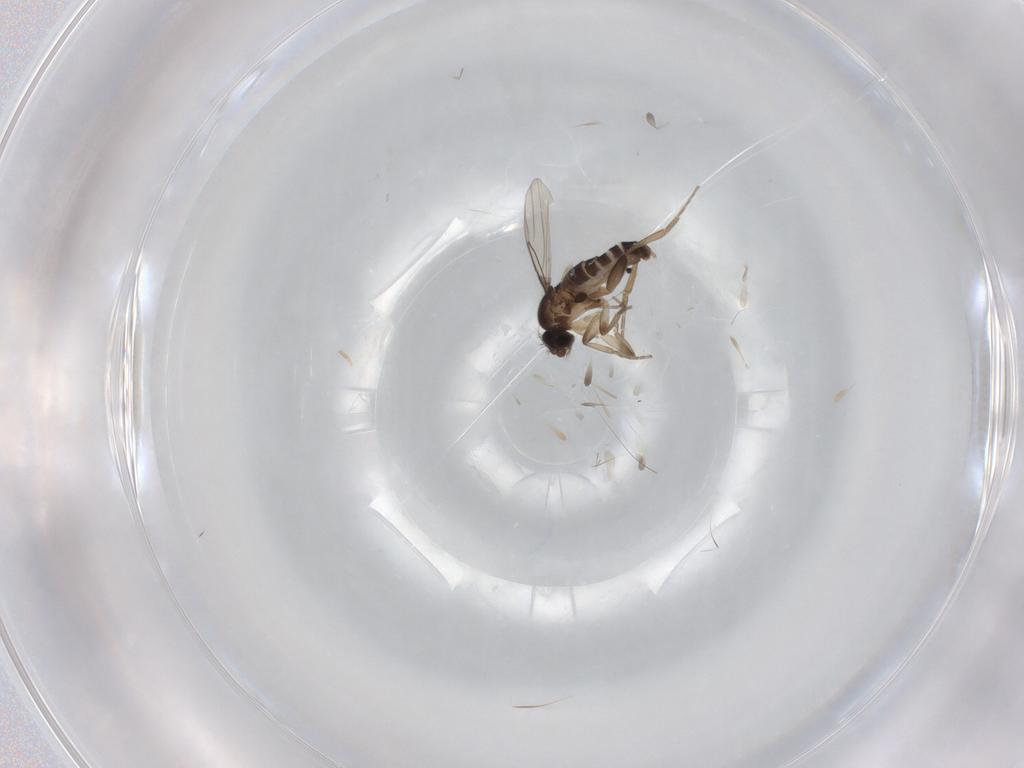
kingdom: Animalia
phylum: Arthropoda
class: Insecta
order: Diptera
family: Phoridae
